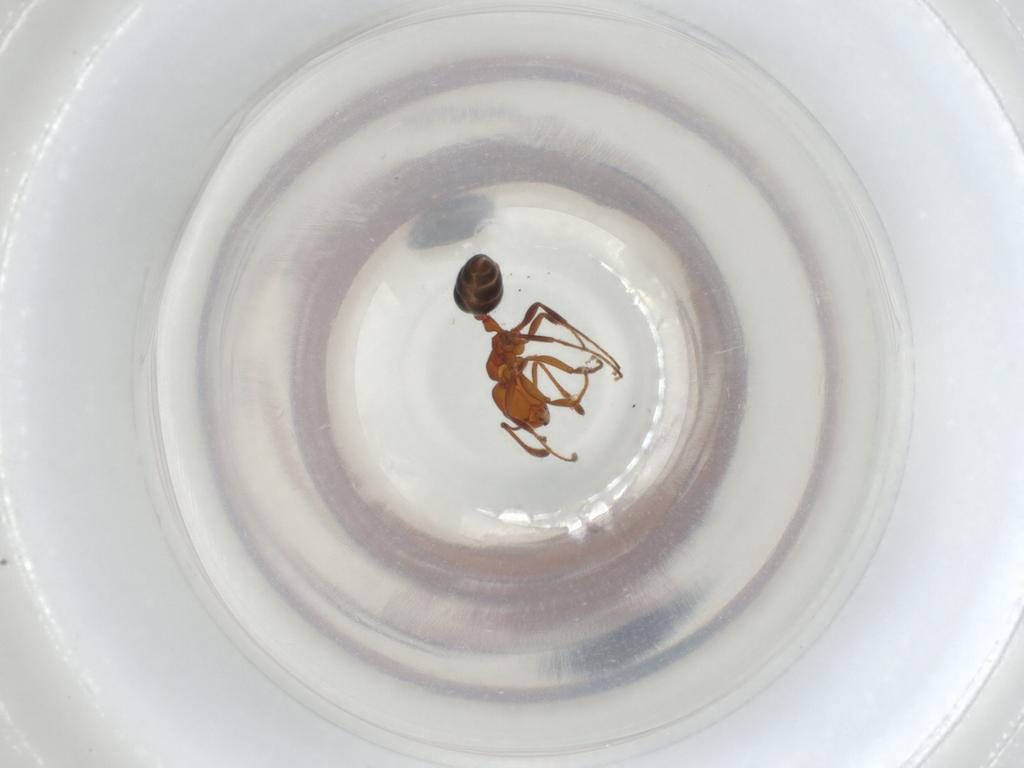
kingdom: Animalia
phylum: Arthropoda
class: Insecta
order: Hymenoptera
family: Formicidae
